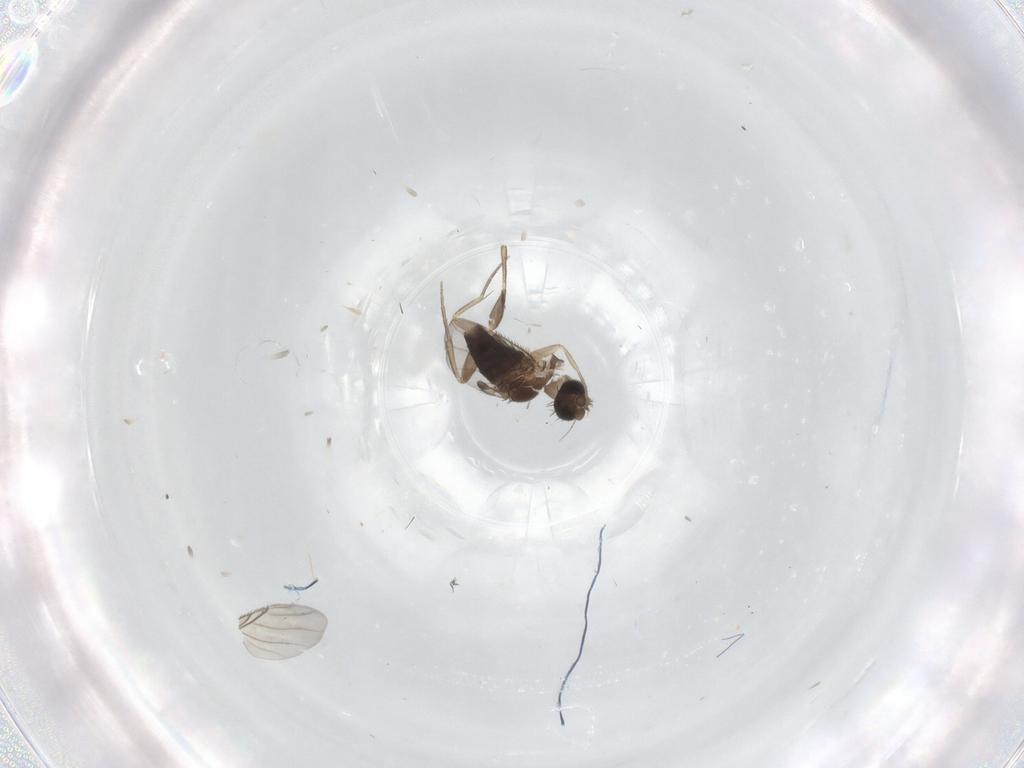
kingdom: Animalia
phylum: Arthropoda
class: Insecta
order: Diptera
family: Phoridae
